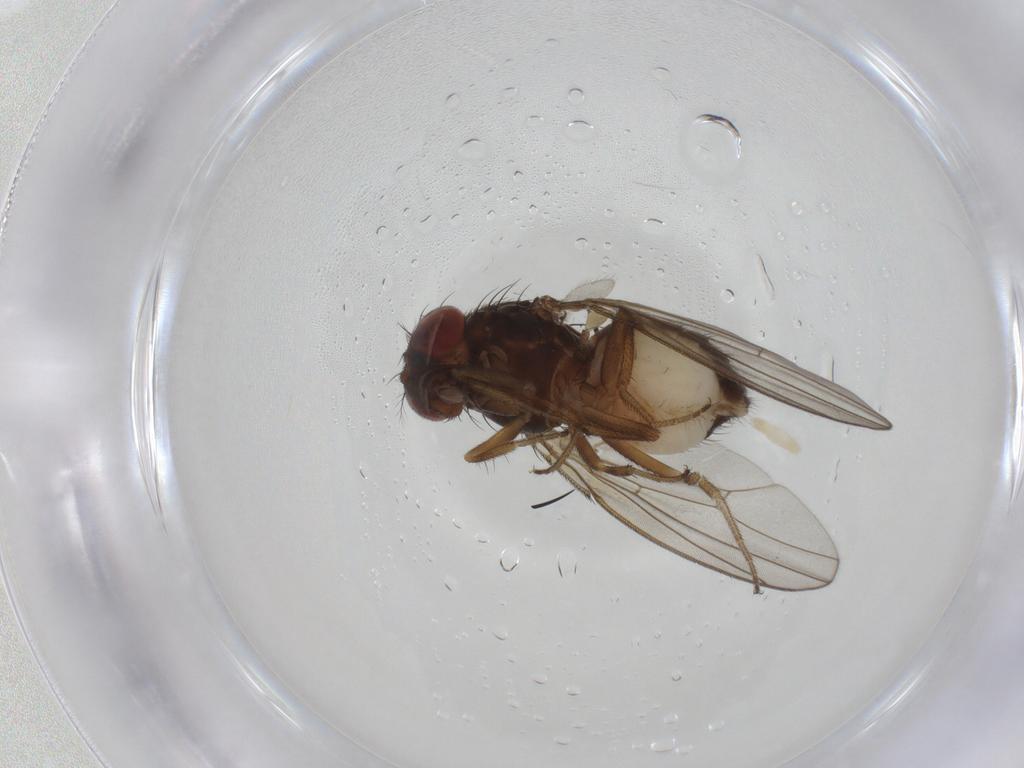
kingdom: Animalia
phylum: Arthropoda
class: Insecta
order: Diptera
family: Drosophilidae
